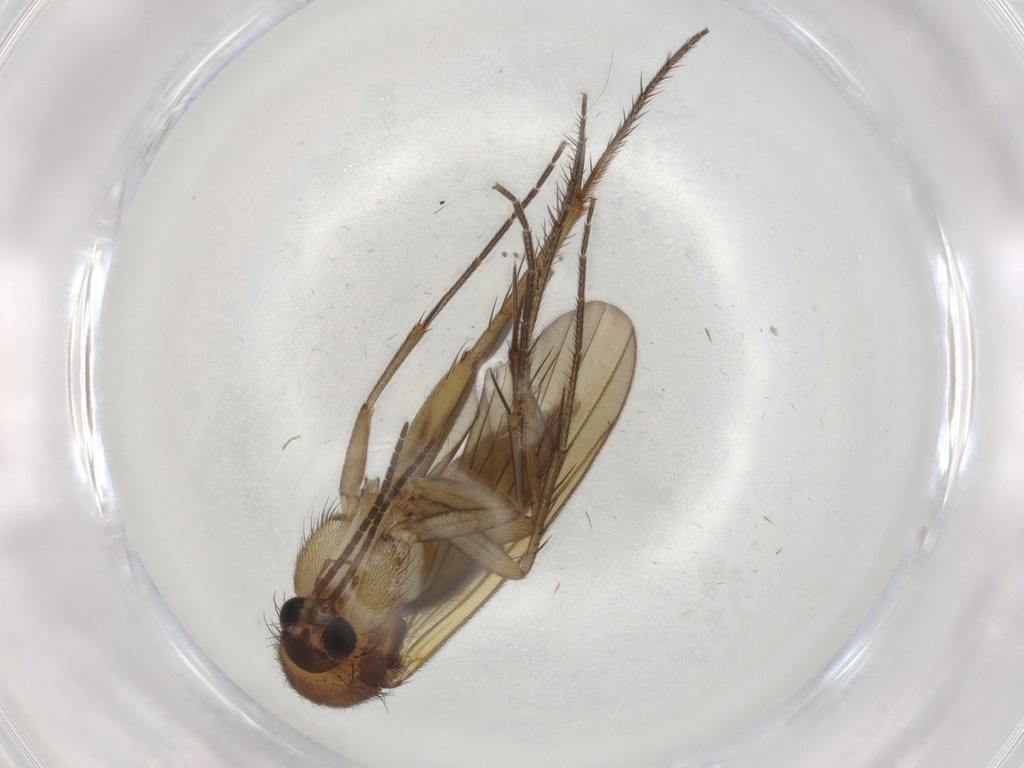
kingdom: Animalia
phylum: Arthropoda
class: Insecta
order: Diptera
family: Mycetophilidae
